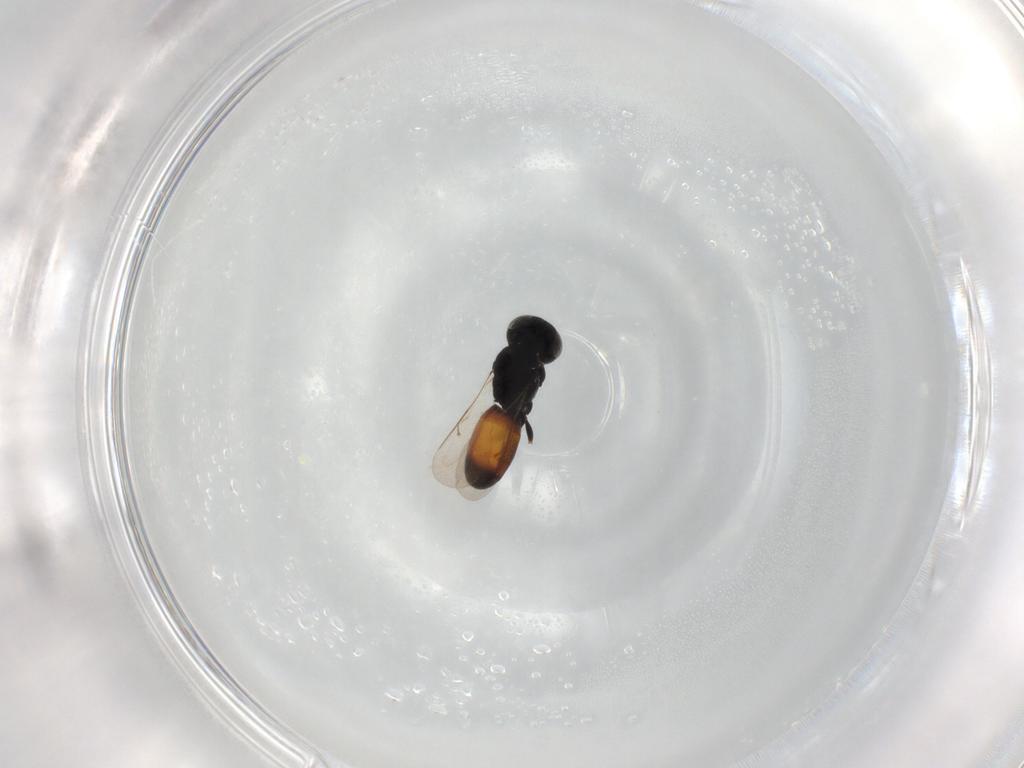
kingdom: Animalia
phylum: Arthropoda
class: Insecta
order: Hymenoptera
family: Scelionidae
